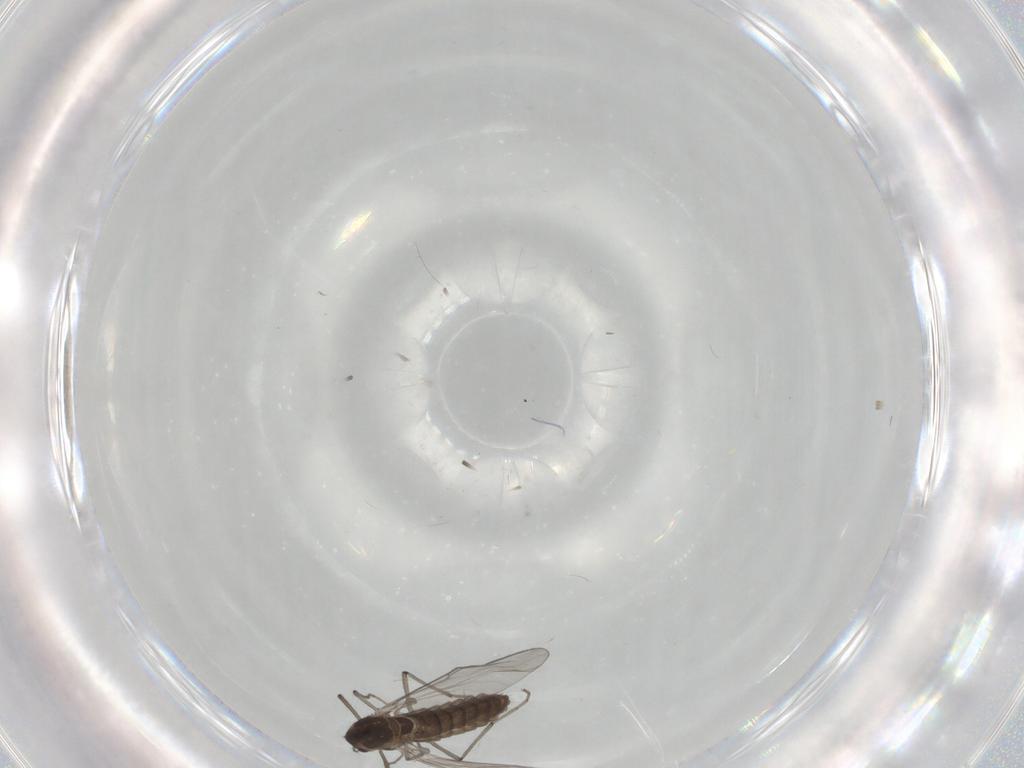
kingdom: Animalia
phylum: Arthropoda
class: Insecta
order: Diptera
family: Chironomidae
